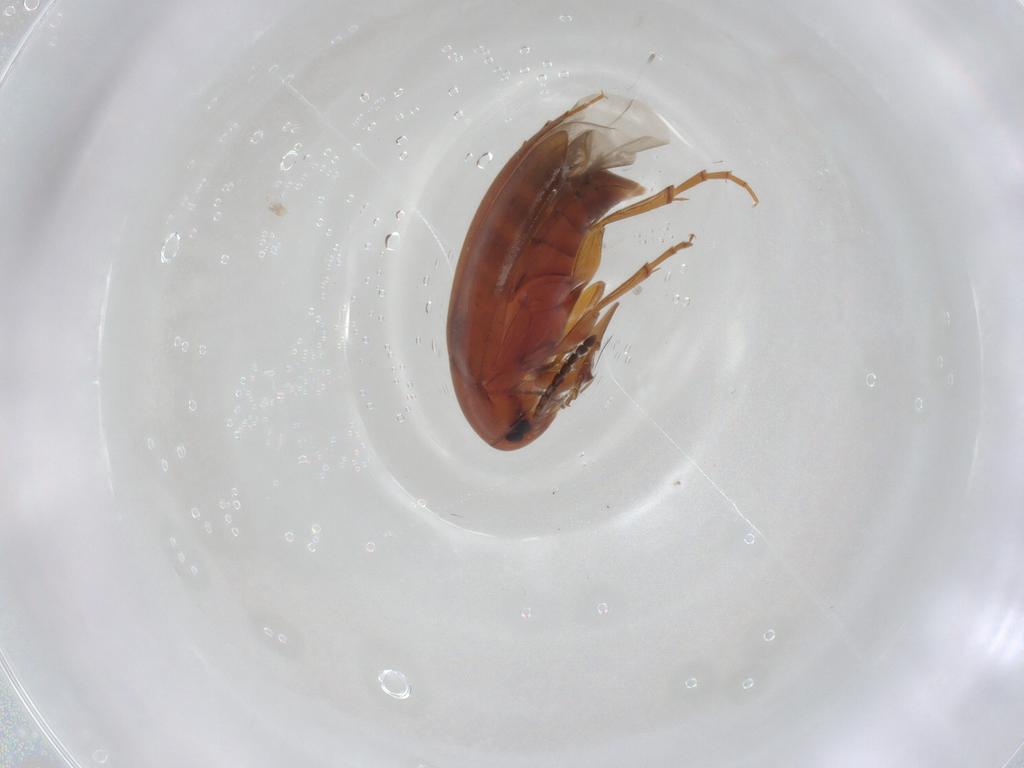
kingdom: Animalia
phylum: Arthropoda
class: Insecta
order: Coleoptera
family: Scraptiidae
